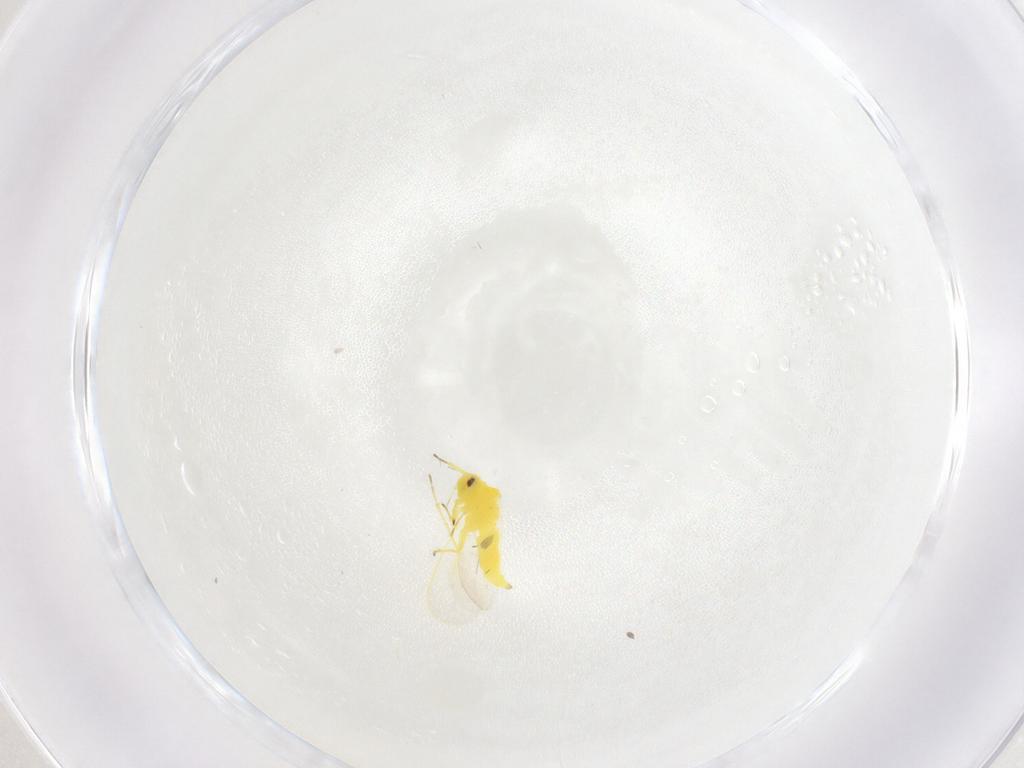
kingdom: Animalia
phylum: Arthropoda
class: Insecta
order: Hemiptera
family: Aleyrodidae
